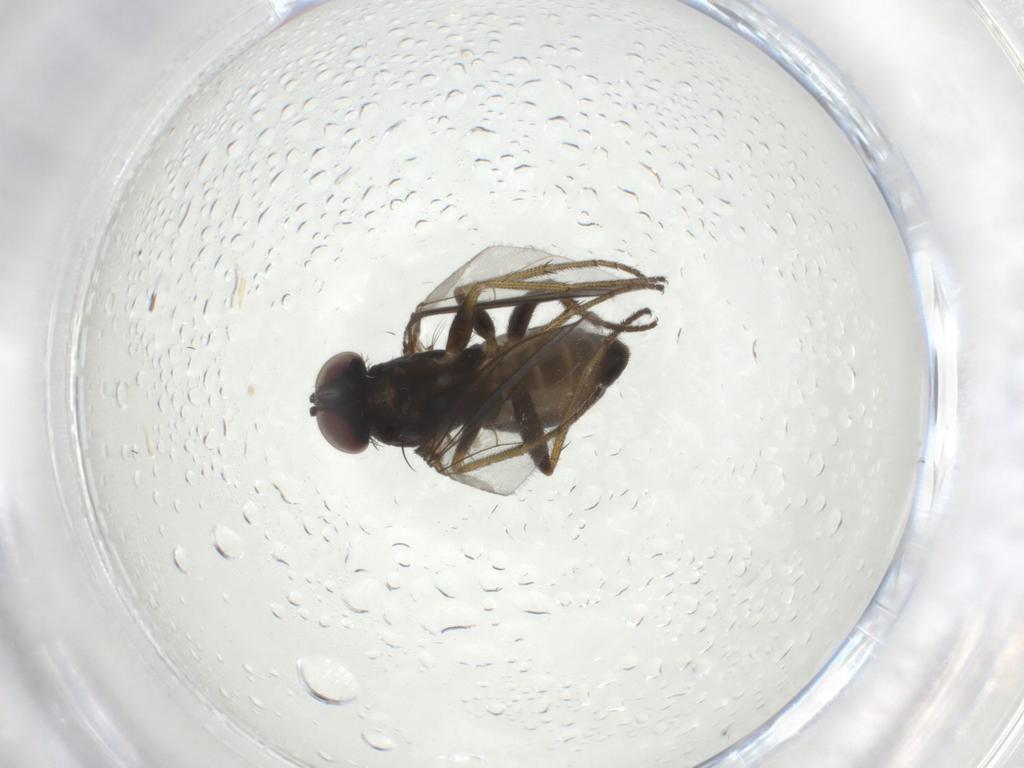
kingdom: Animalia
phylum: Arthropoda
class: Insecta
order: Diptera
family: Dolichopodidae
